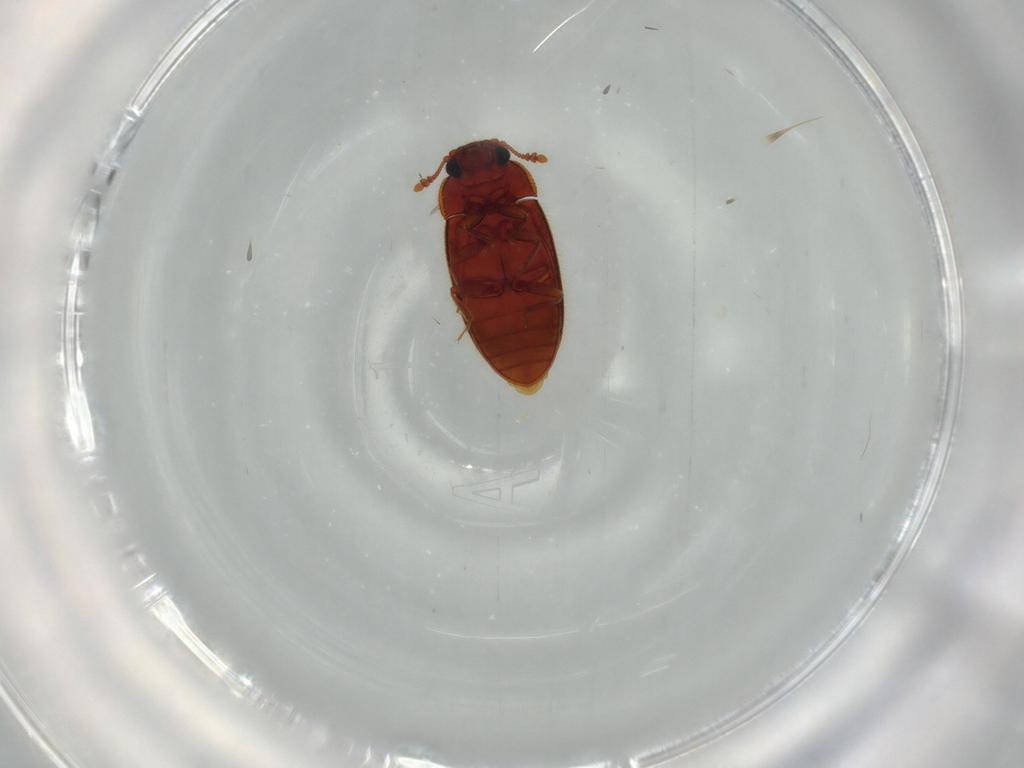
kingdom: Animalia
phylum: Arthropoda
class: Insecta
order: Coleoptera
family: Biphyllidae
